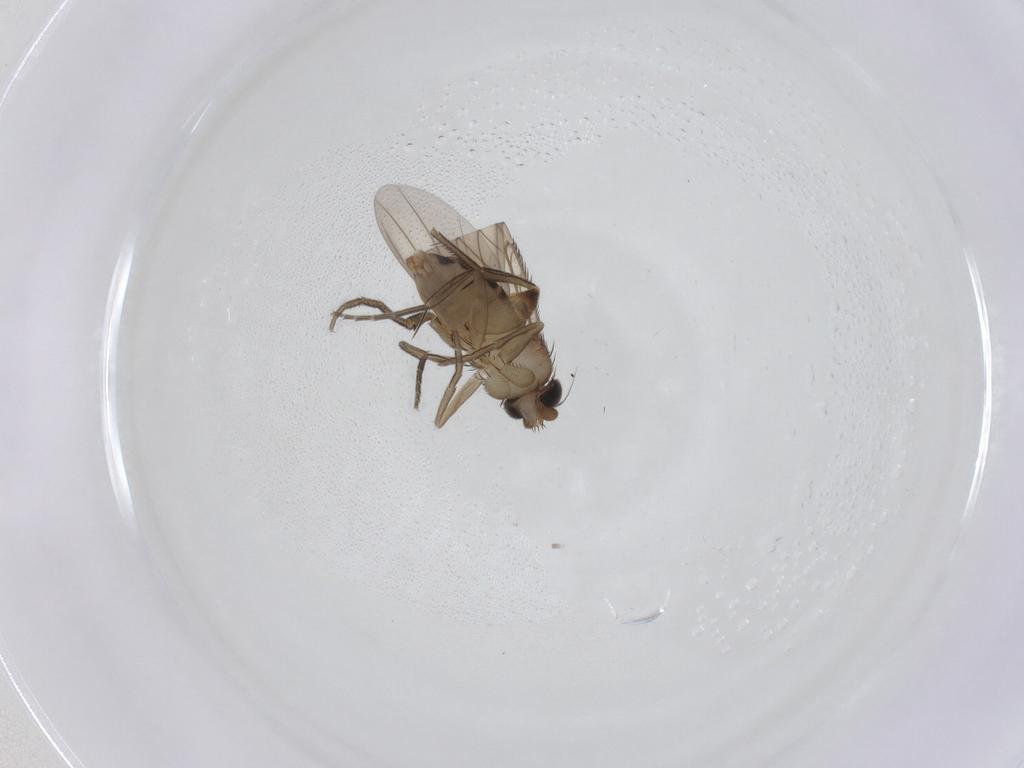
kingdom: Animalia
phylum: Arthropoda
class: Insecta
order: Diptera
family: Phoridae
